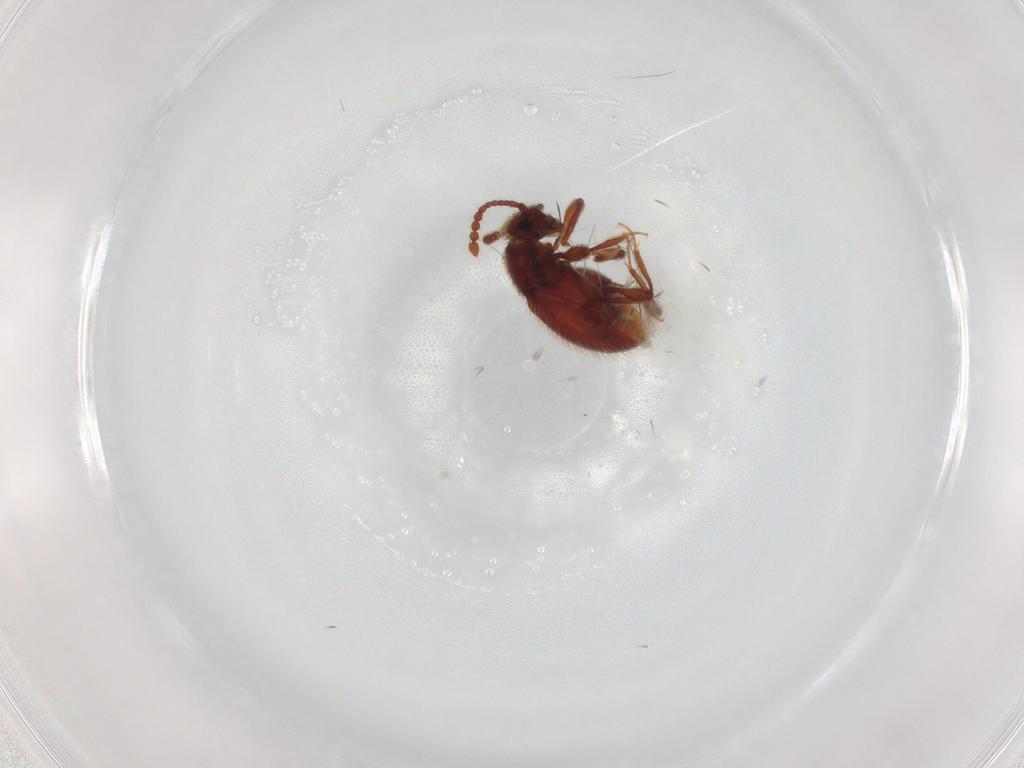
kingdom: Animalia
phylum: Arthropoda
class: Insecta
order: Coleoptera
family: Staphylinidae
